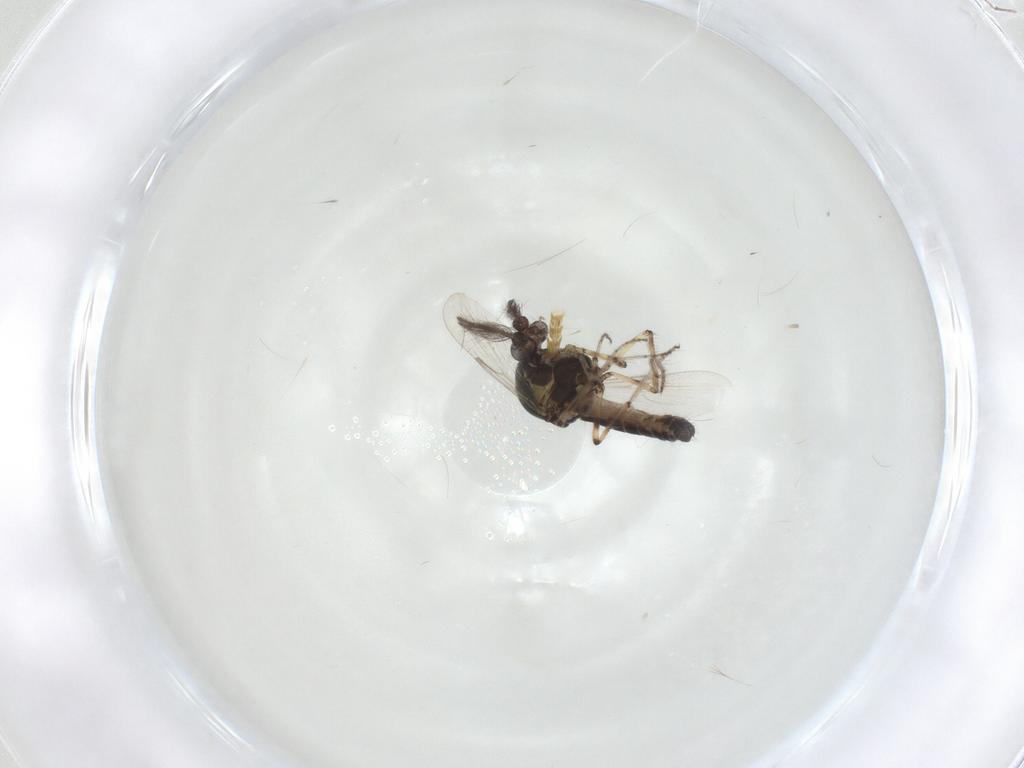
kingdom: Animalia
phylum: Arthropoda
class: Insecta
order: Diptera
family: Ceratopogonidae
